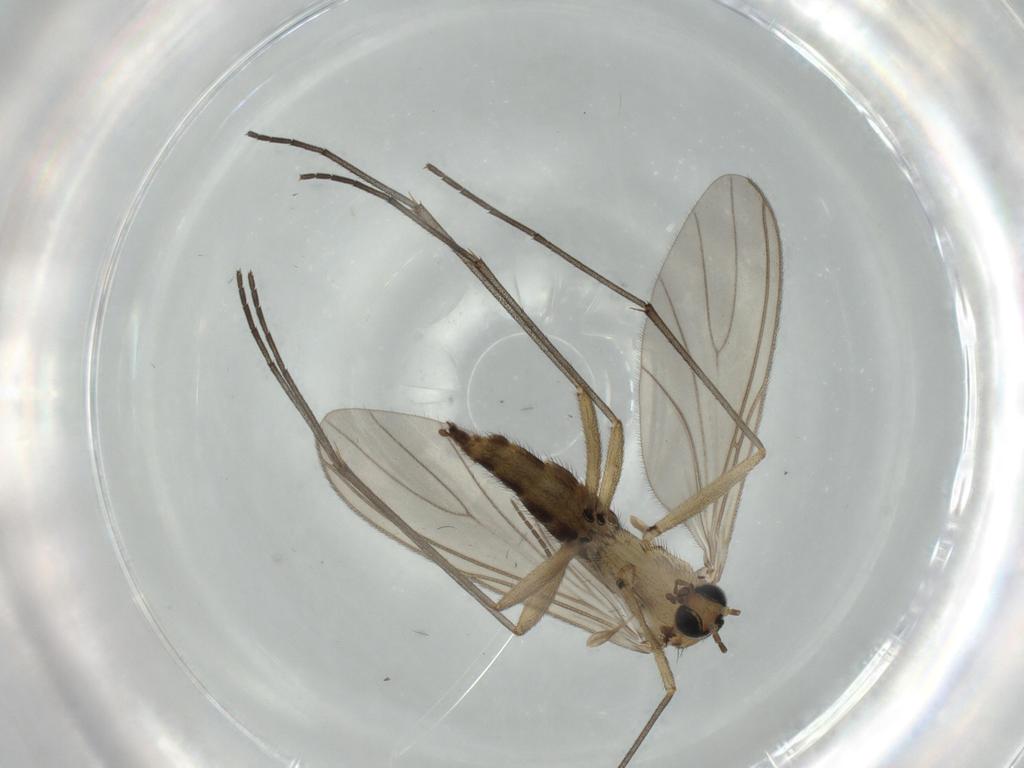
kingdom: Animalia
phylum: Arthropoda
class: Insecta
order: Diptera
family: Sciaridae
